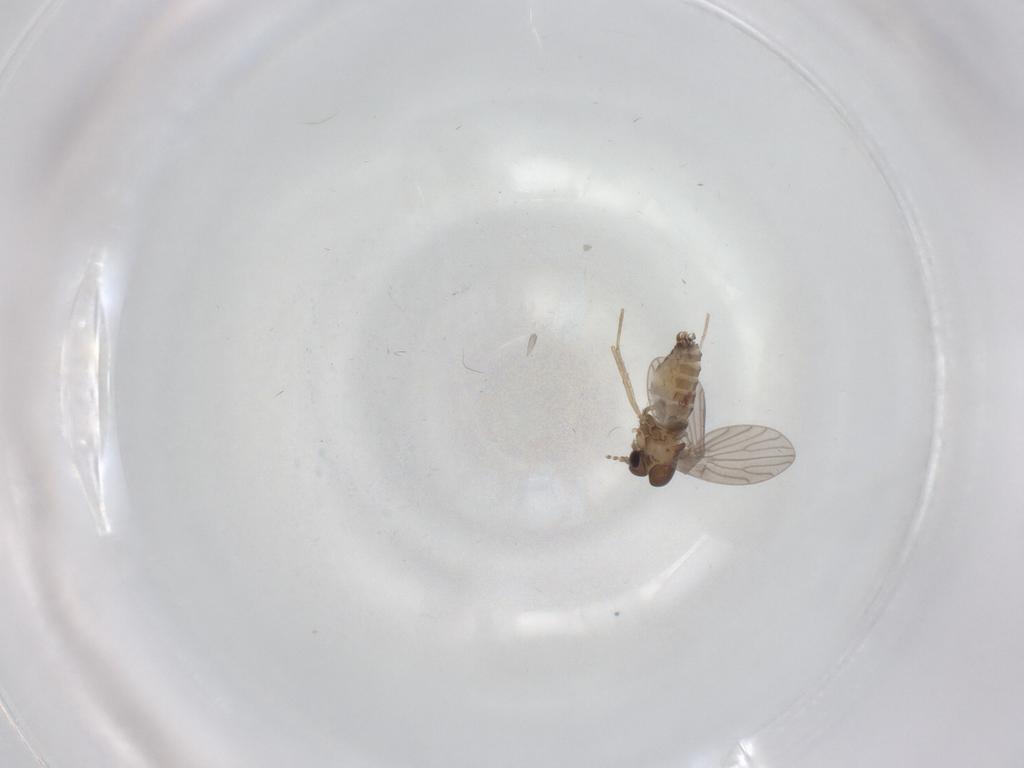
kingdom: Animalia
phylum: Arthropoda
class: Insecta
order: Diptera
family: Psychodidae
